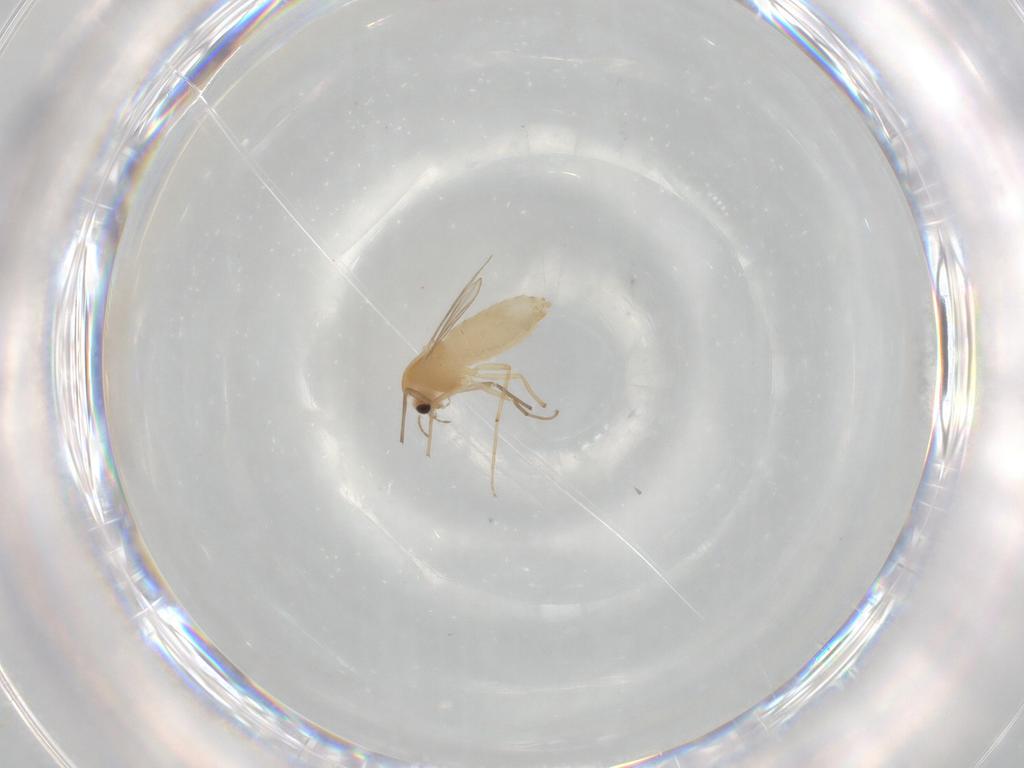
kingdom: Animalia
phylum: Arthropoda
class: Insecta
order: Diptera
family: Chironomidae
